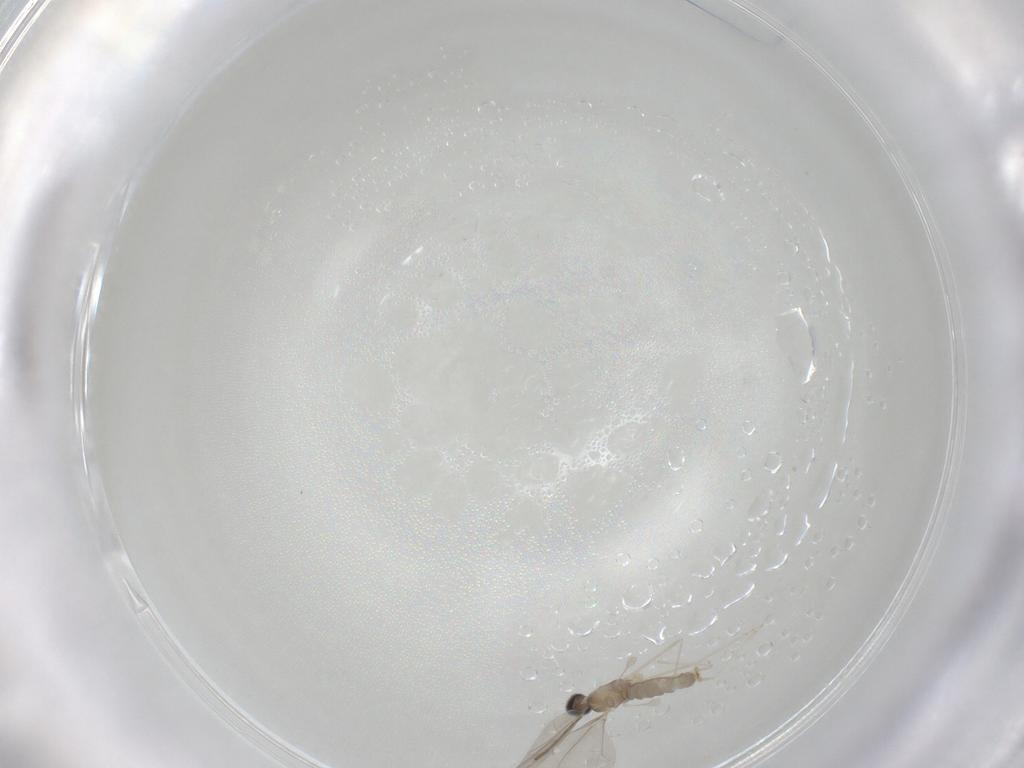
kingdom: Animalia
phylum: Arthropoda
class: Insecta
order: Diptera
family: Cecidomyiidae
